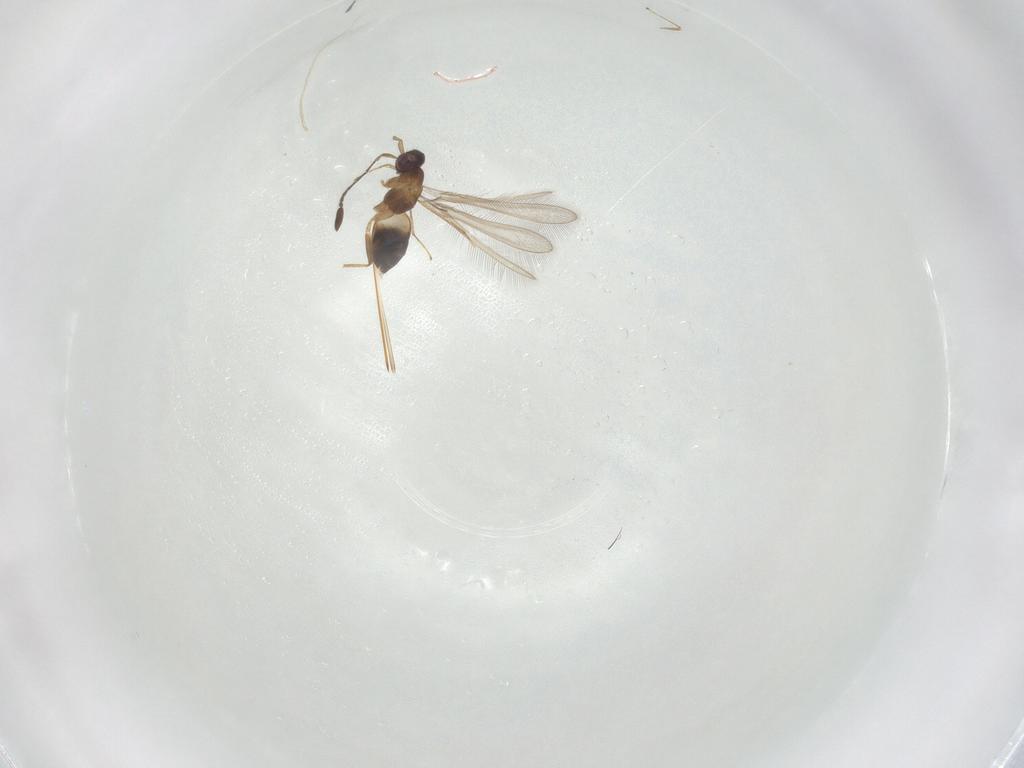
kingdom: Animalia
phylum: Arthropoda
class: Insecta
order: Hymenoptera
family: Mymaridae
